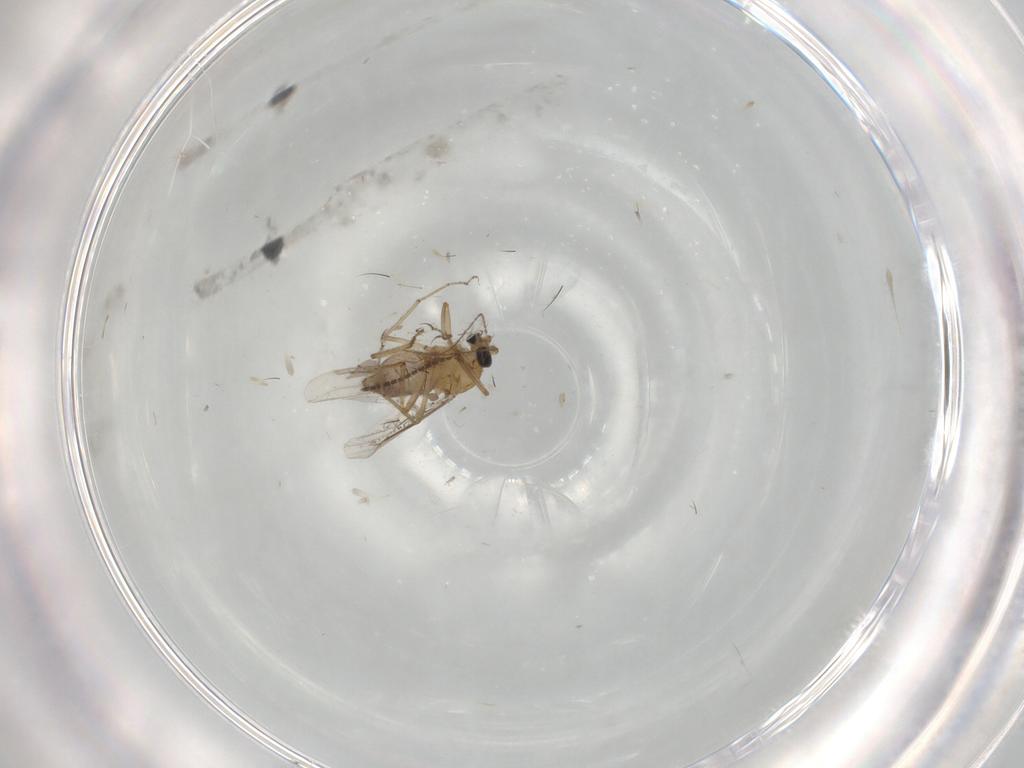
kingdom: Animalia
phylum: Arthropoda
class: Insecta
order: Diptera
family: Cecidomyiidae
